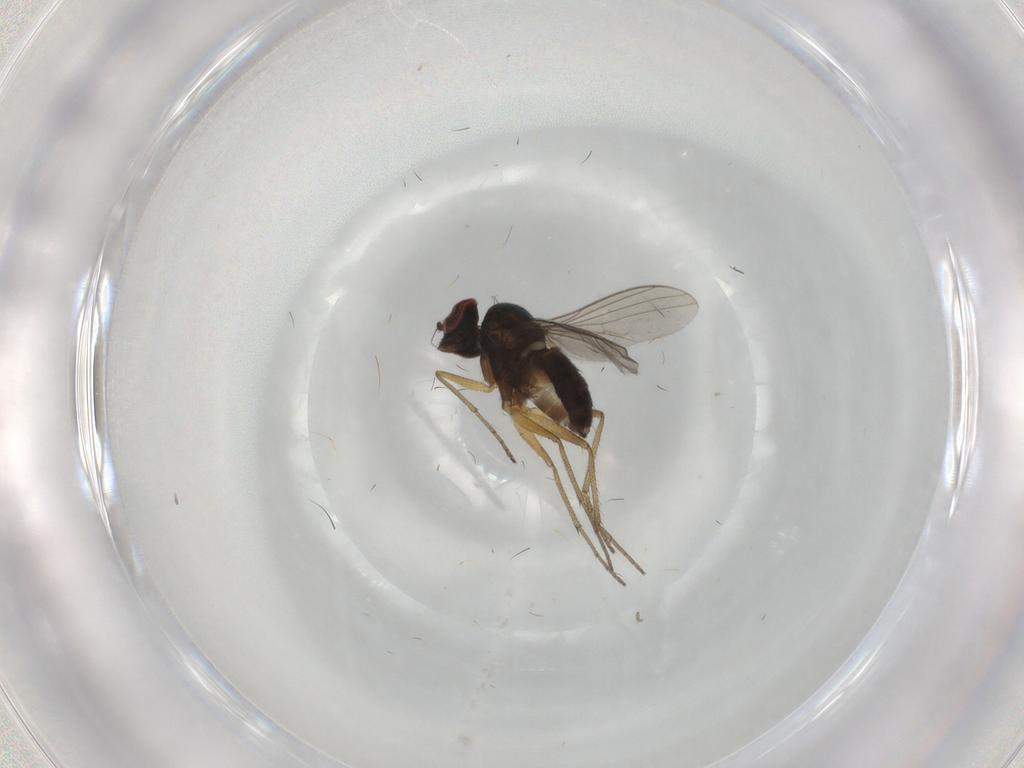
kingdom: Animalia
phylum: Arthropoda
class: Insecta
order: Diptera
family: Dolichopodidae
